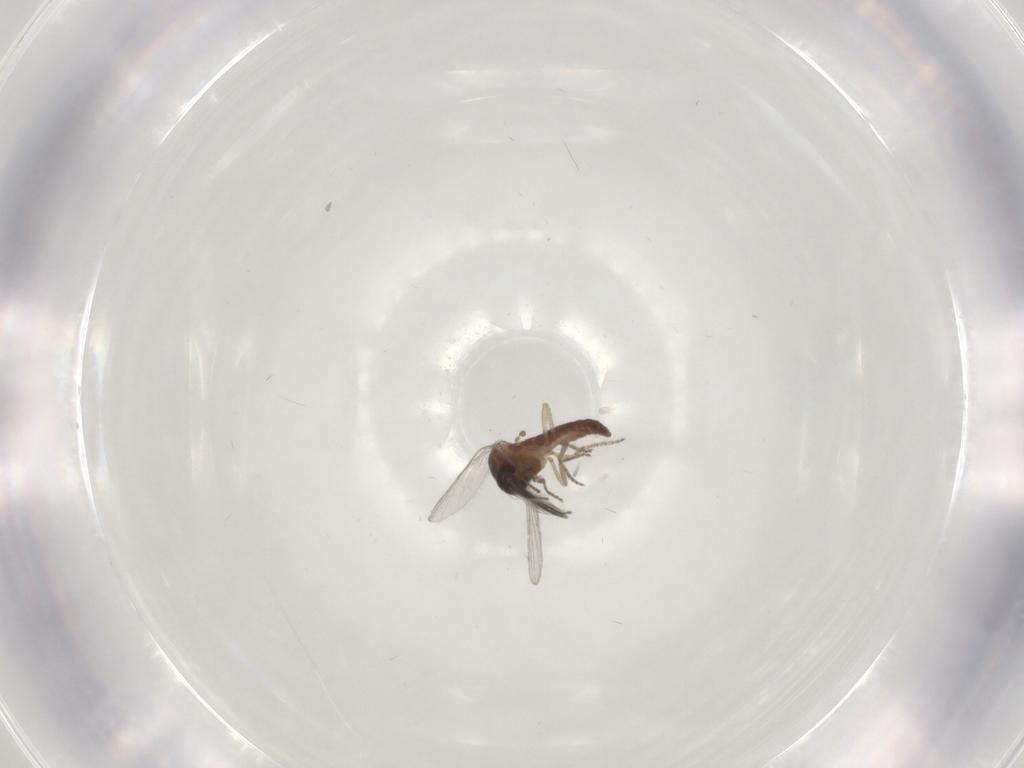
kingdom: Animalia
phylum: Arthropoda
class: Insecta
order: Diptera
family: Ceratopogonidae
